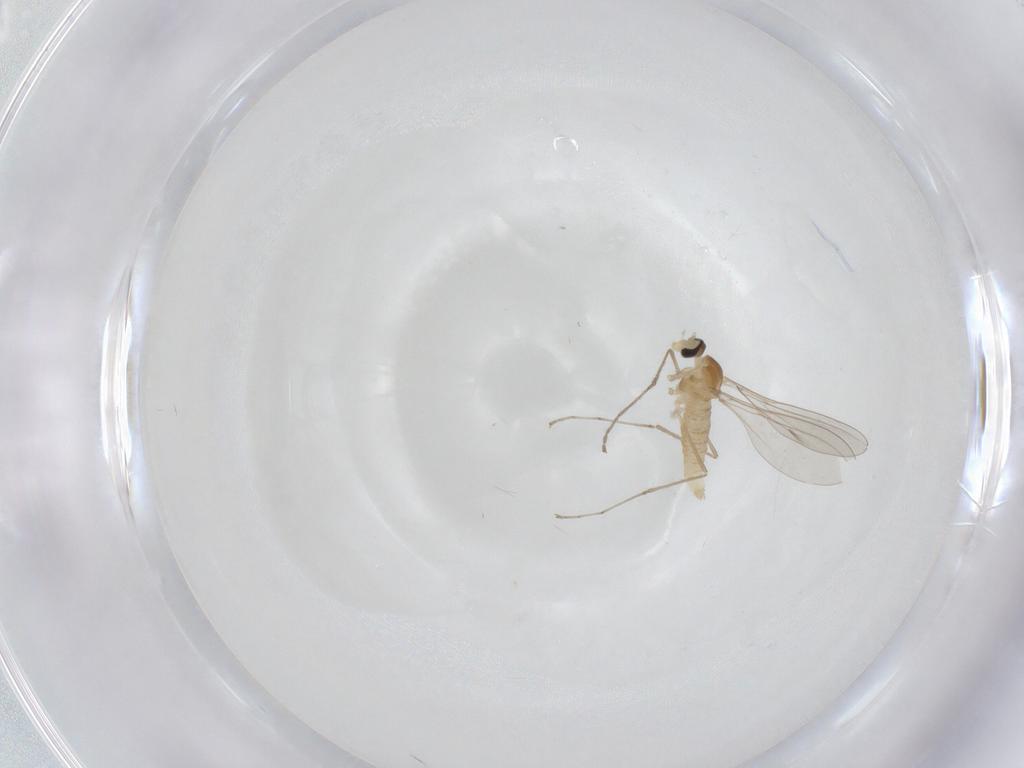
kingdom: Animalia
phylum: Arthropoda
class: Insecta
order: Diptera
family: Cecidomyiidae
